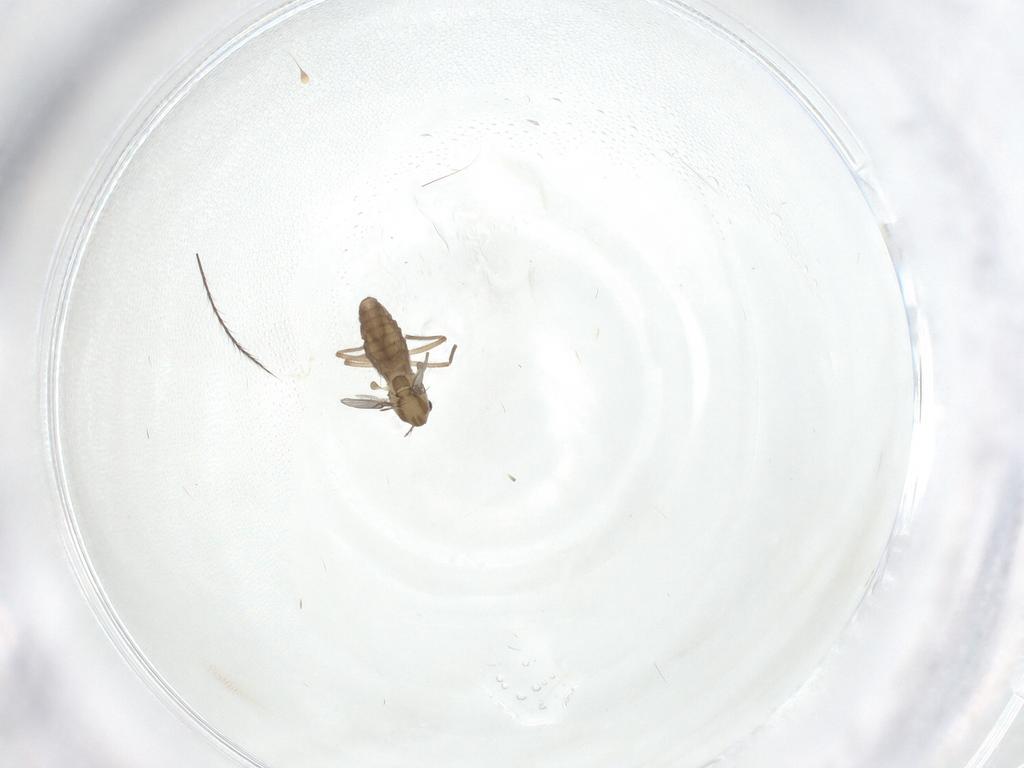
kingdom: Animalia
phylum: Arthropoda
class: Insecta
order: Diptera
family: Chironomidae
